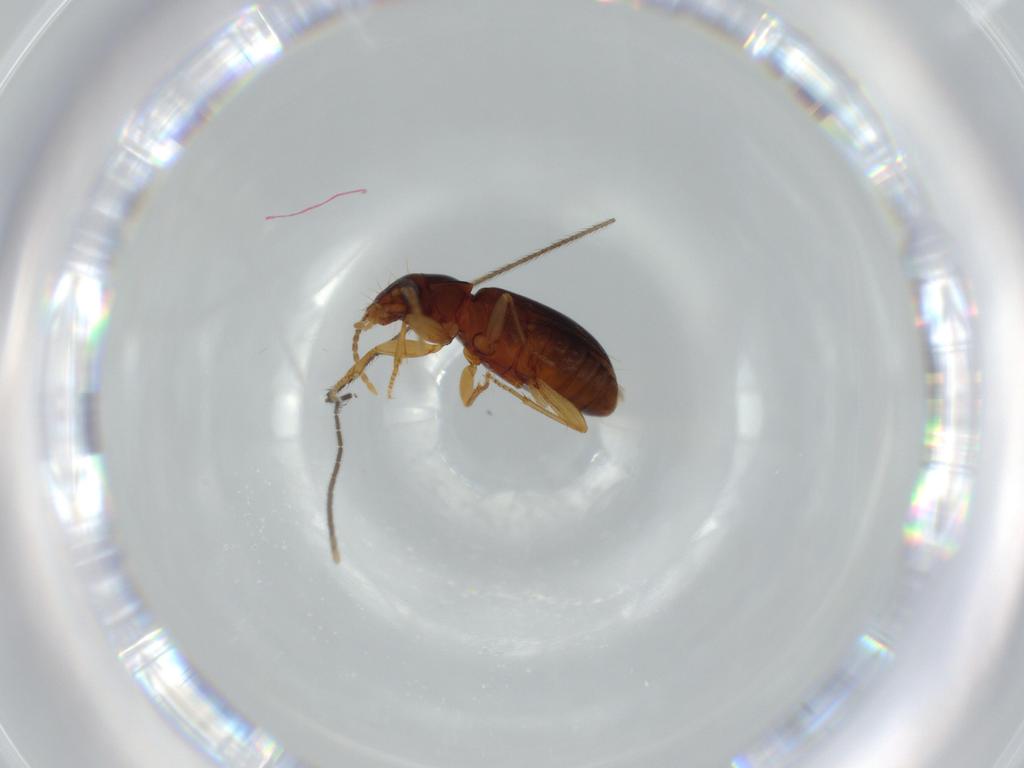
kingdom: Animalia
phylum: Arthropoda
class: Insecta
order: Coleoptera
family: Carabidae
